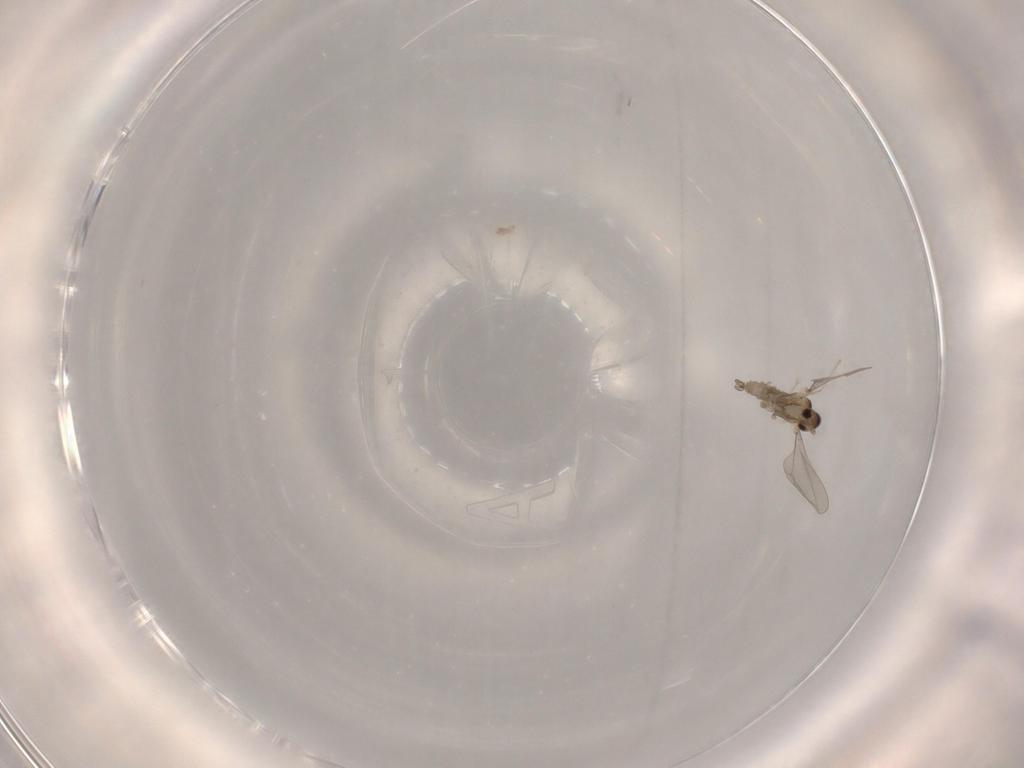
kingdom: Animalia
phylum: Arthropoda
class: Insecta
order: Diptera
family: Cecidomyiidae
